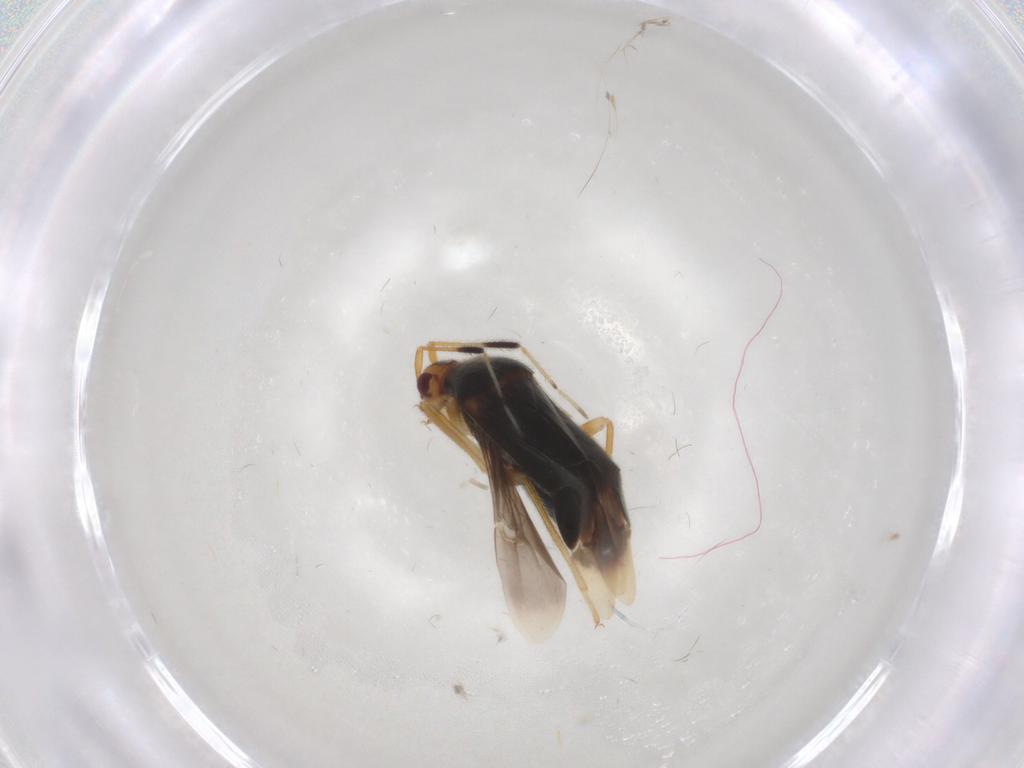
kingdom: Animalia
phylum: Arthropoda
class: Insecta
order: Hemiptera
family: Miridae
